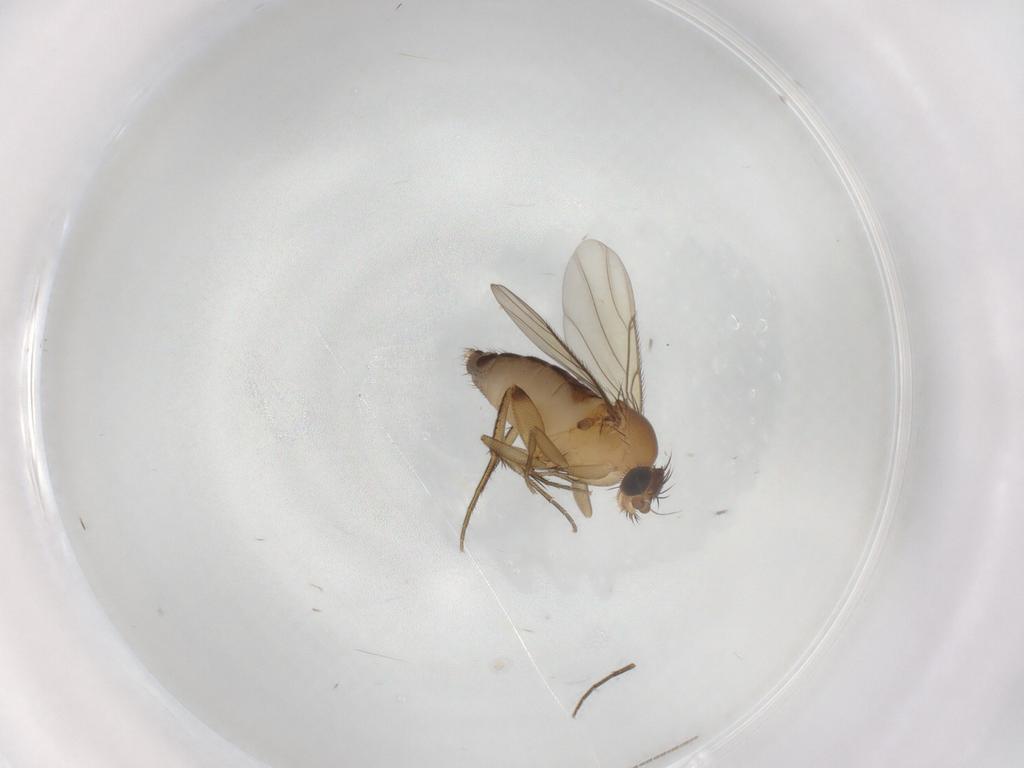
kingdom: Animalia
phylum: Arthropoda
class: Insecta
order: Diptera
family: Phoridae
